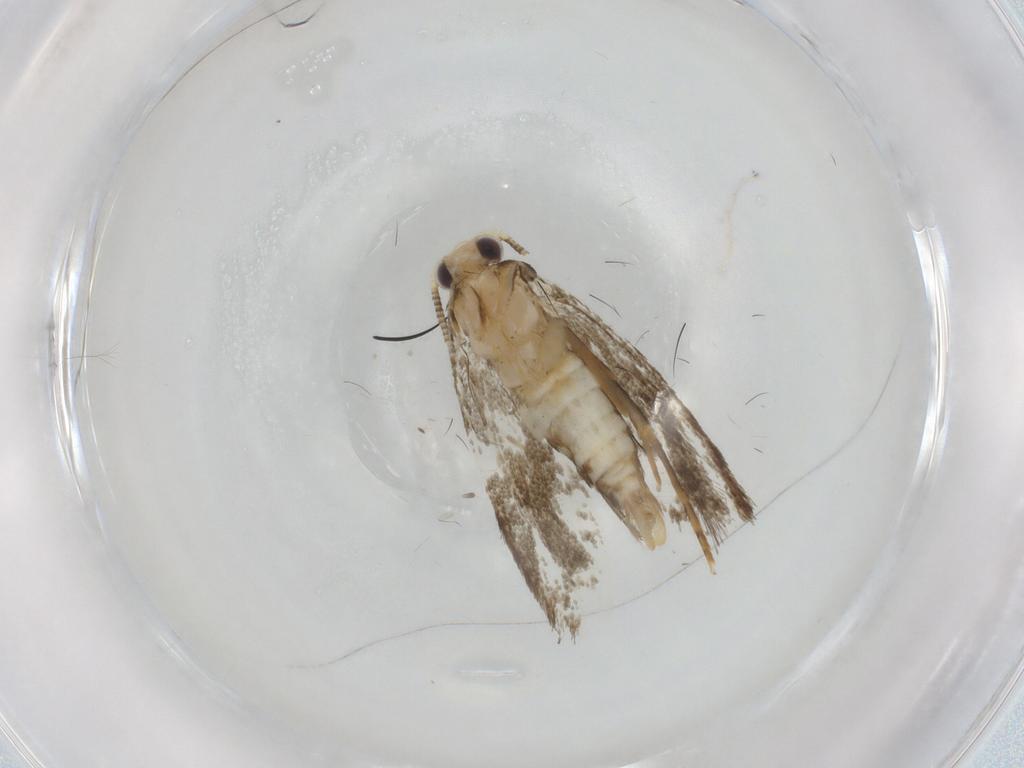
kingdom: Animalia
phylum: Arthropoda
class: Insecta
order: Lepidoptera
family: Tineidae
